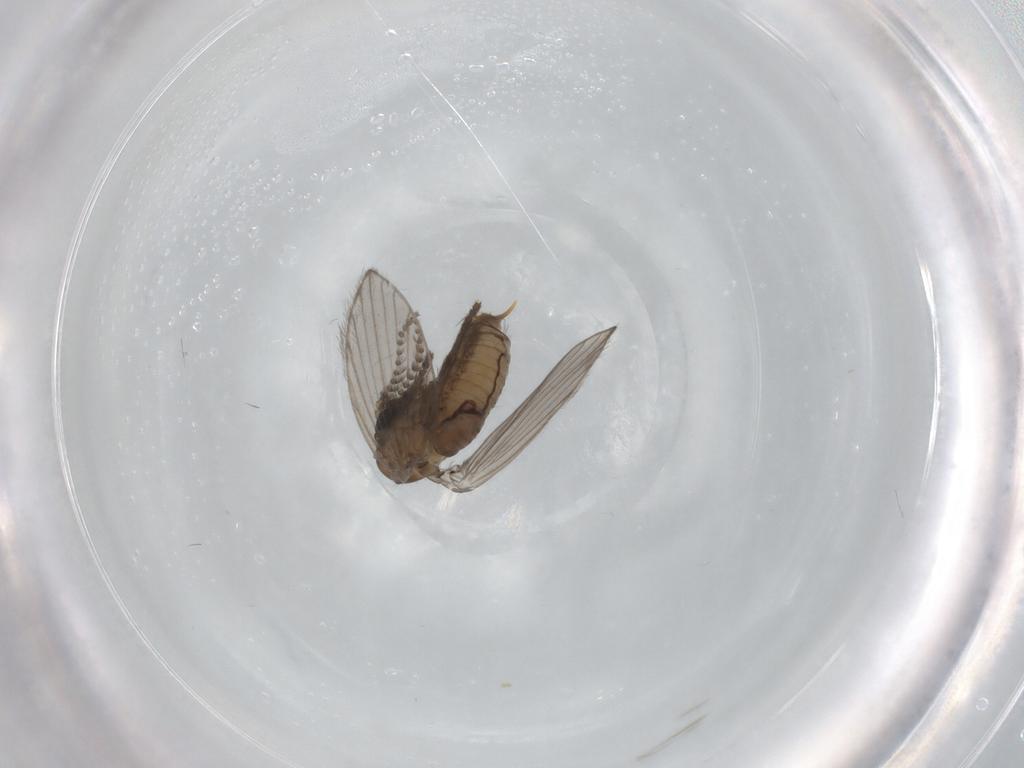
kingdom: Animalia
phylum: Arthropoda
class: Insecta
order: Diptera
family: Psychodidae
